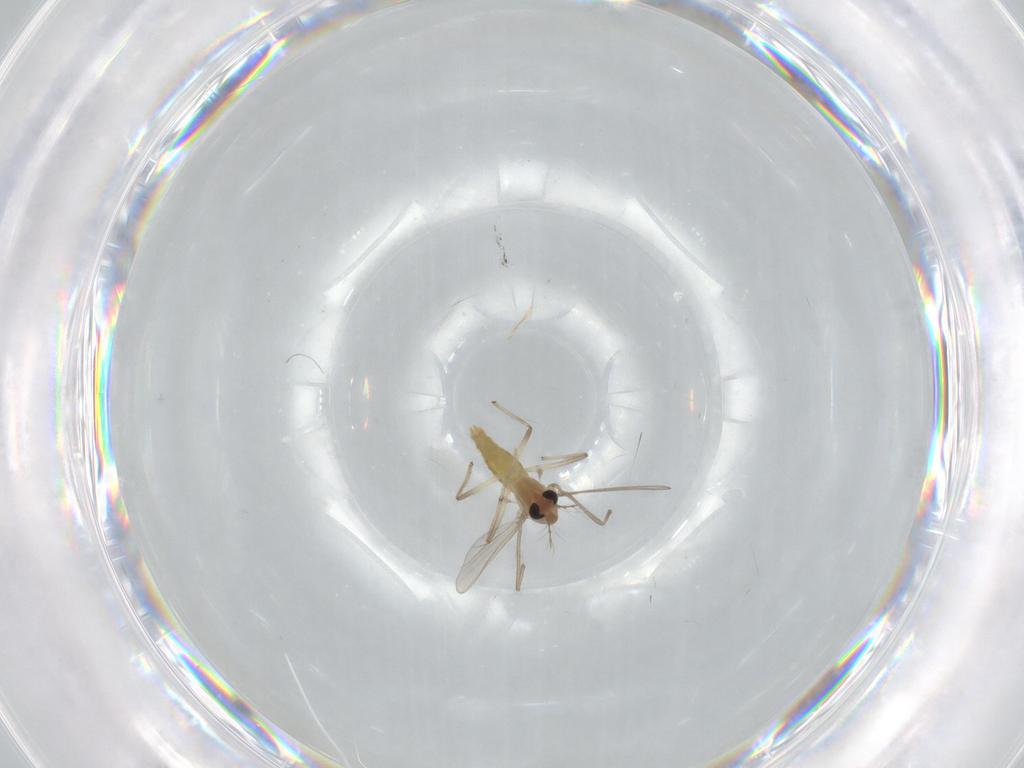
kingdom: Animalia
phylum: Arthropoda
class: Insecta
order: Diptera
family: Chironomidae
